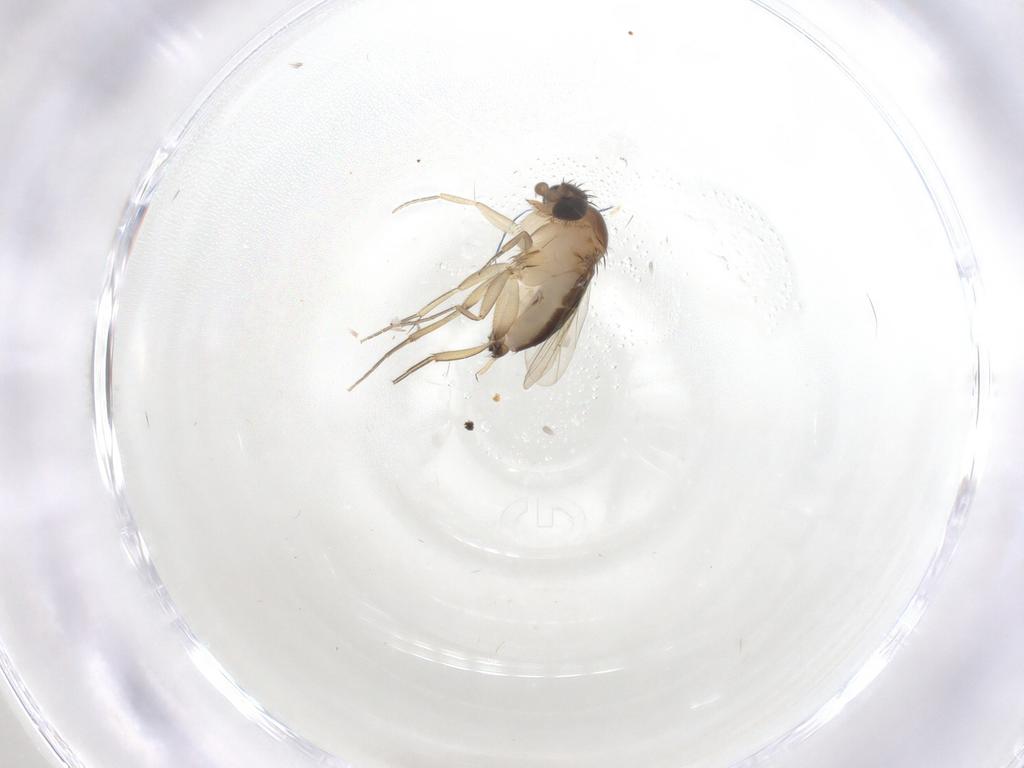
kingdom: Animalia
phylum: Arthropoda
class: Insecta
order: Diptera
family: Phoridae
